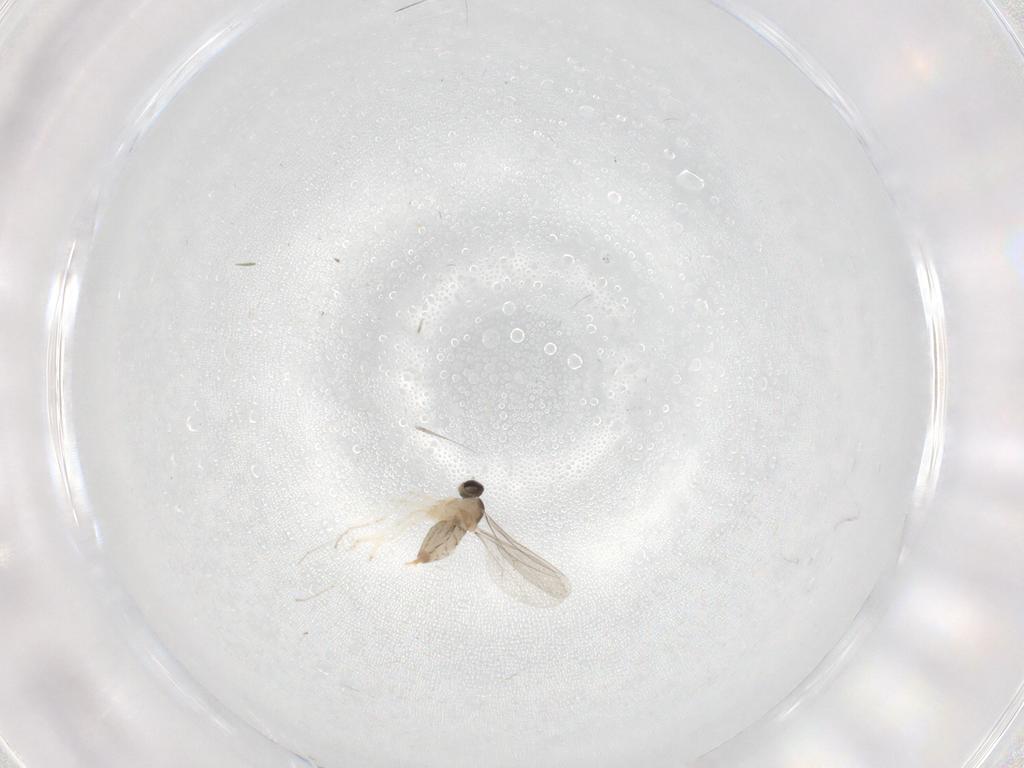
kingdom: Animalia
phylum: Arthropoda
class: Insecta
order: Diptera
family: Cecidomyiidae
